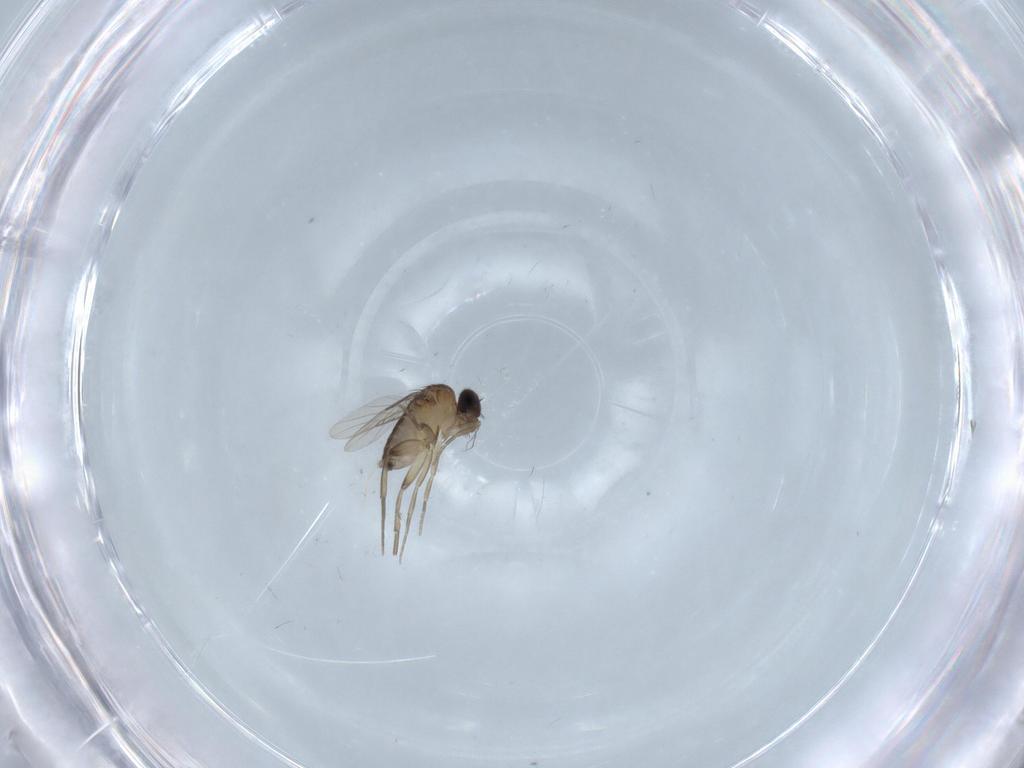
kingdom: Animalia
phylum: Arthropoda
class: Insecta
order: Diptera
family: Phoridae
